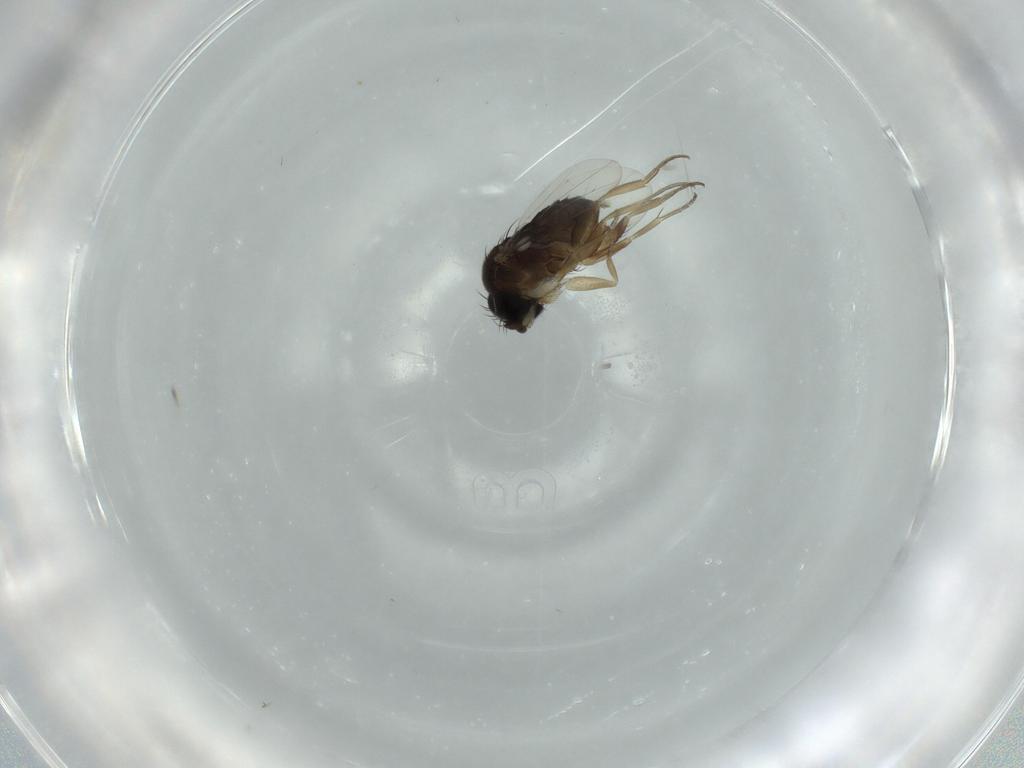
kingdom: Animalia
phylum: Arthropoda
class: Insecta
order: Diptera
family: Phoridae
